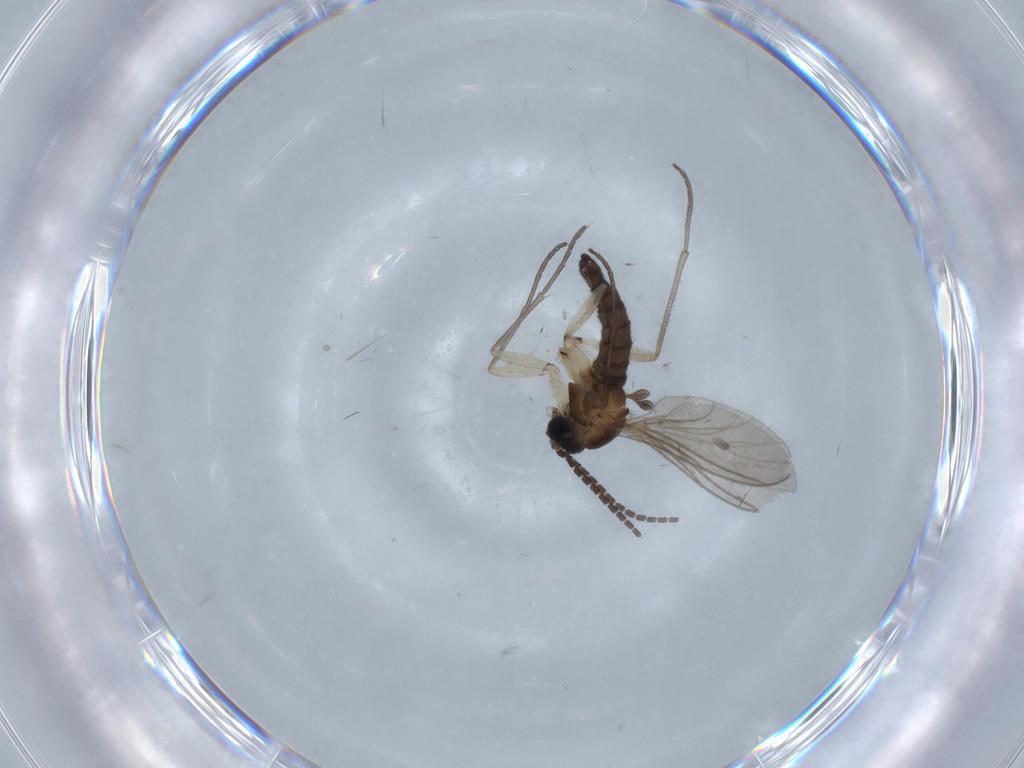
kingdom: Animalia
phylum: Arthropoda
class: Insecta
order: Diptera
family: Sciaridae
